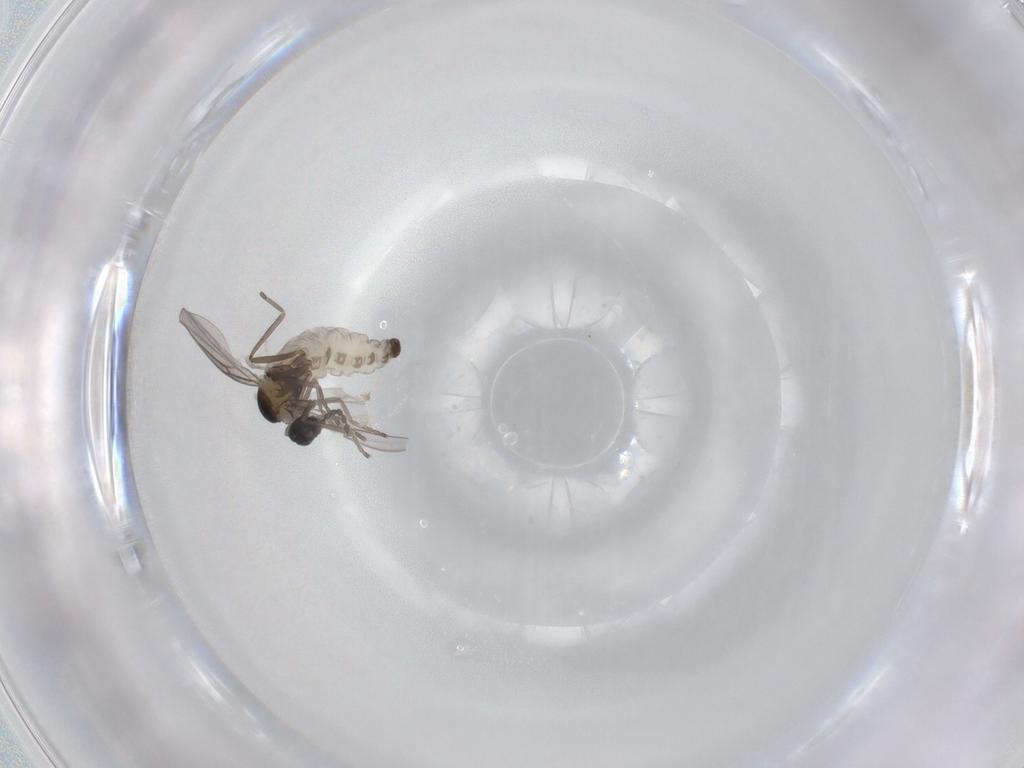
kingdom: Animalia
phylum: Arthropoda
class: Insecta
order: Diptera
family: Cecidomyiidae
